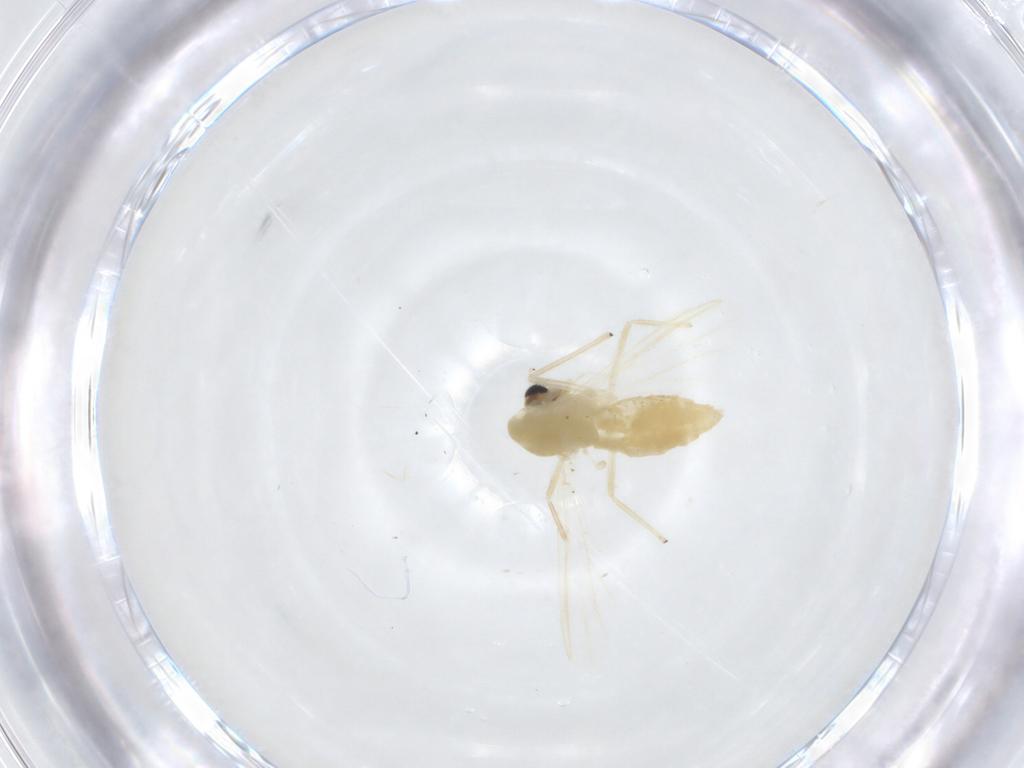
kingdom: Animalia
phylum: Arthropoda
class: Insecta
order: Diptera
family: Chironomidae
